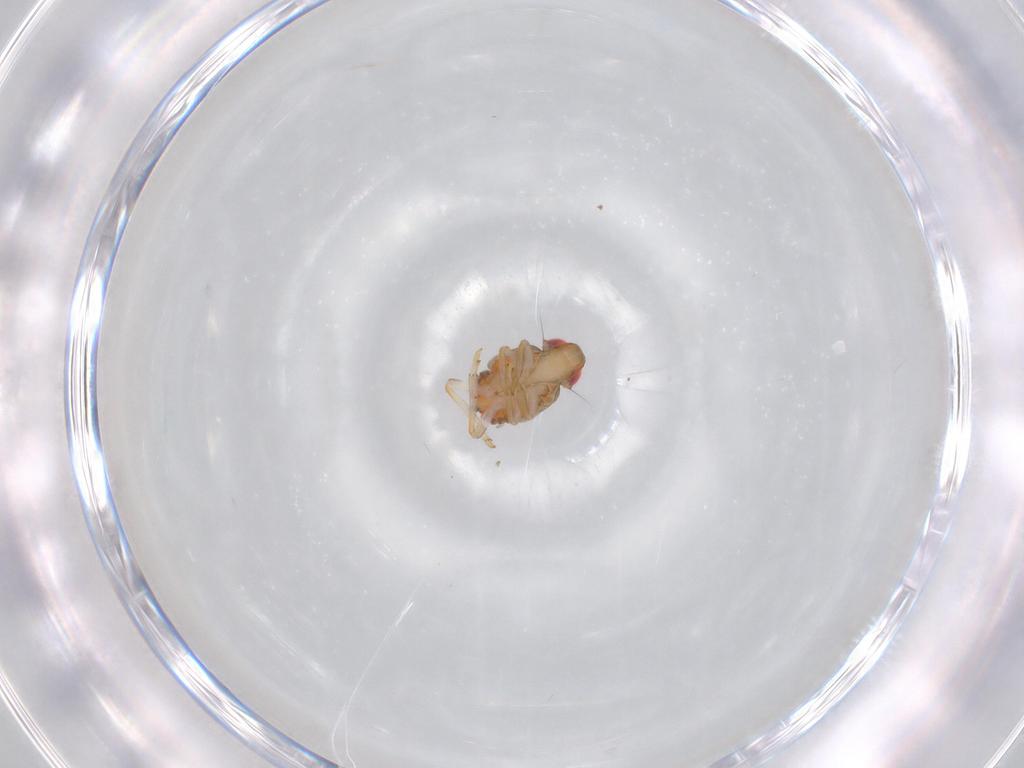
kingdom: Animalia
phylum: Arthropoda
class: Insecta
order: Hemiptera
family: Issidae
